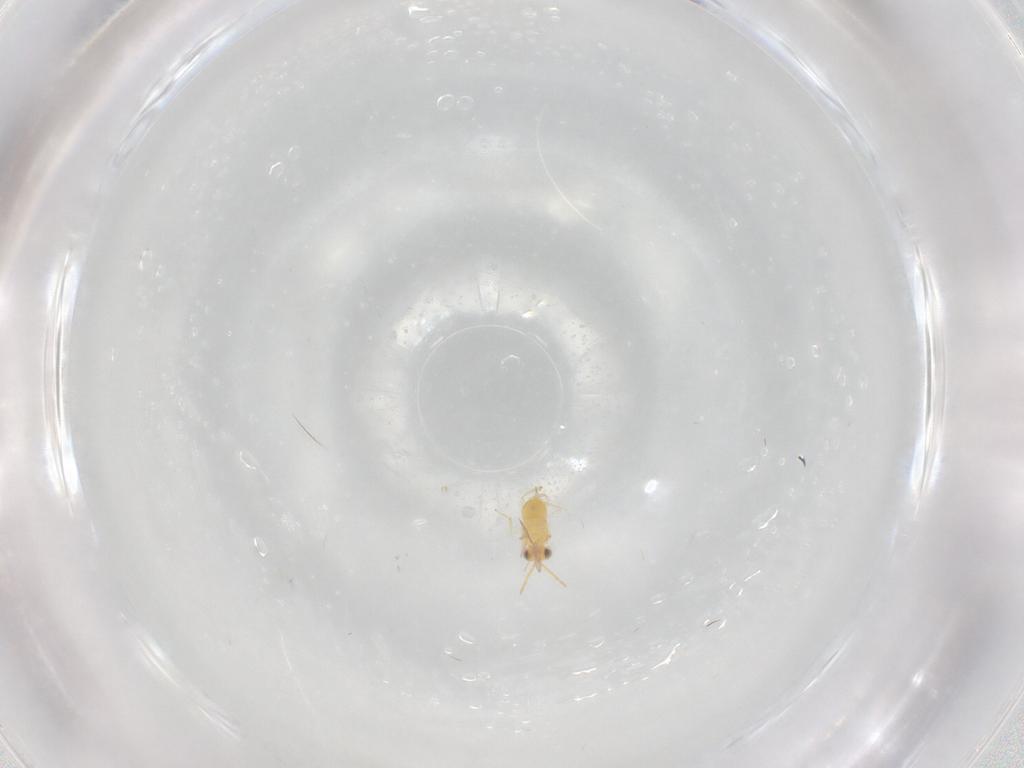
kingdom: Animalia
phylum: Arthropoda
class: Insecta
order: Hymenoptera
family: Aphelinidae
